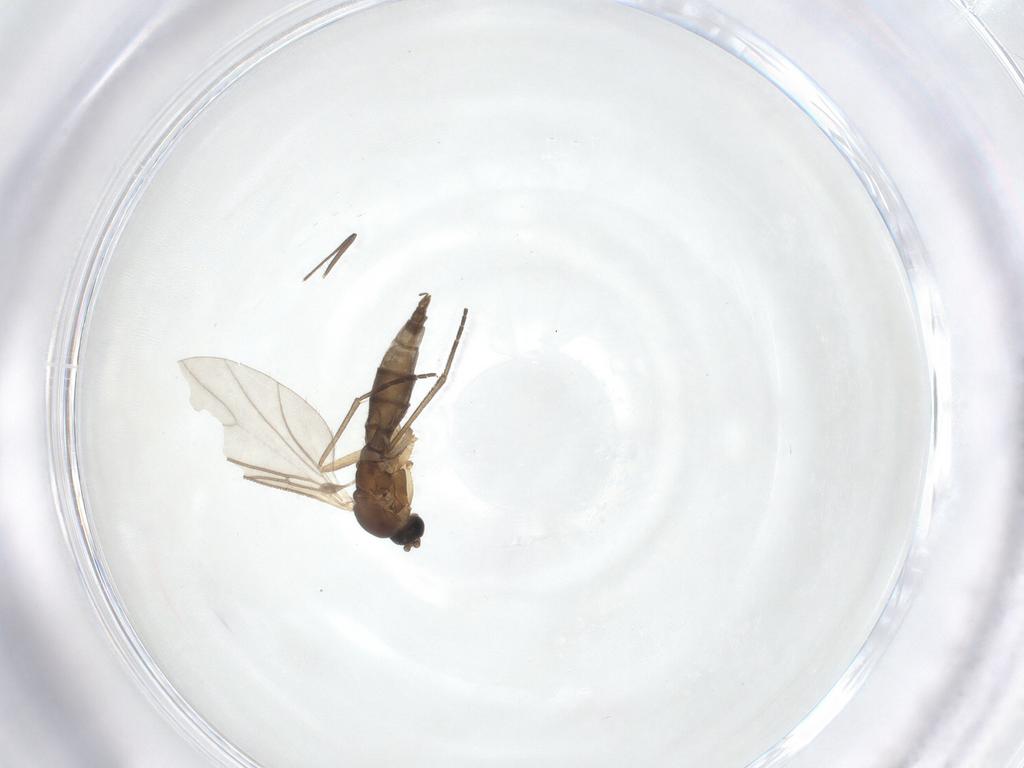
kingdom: Animalia
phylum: Arthropoda
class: Insecta
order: Diptera
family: Sciaridae
